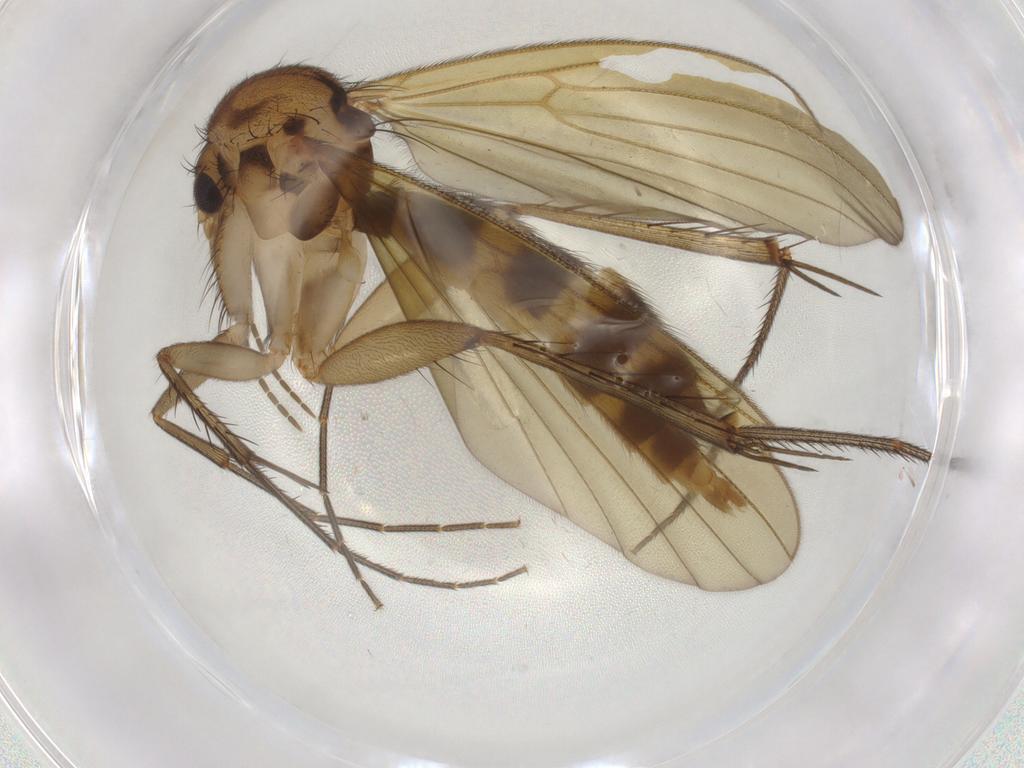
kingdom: Animalia
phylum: Arthropoda
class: Insecta
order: Diptera
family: Sciaridae
